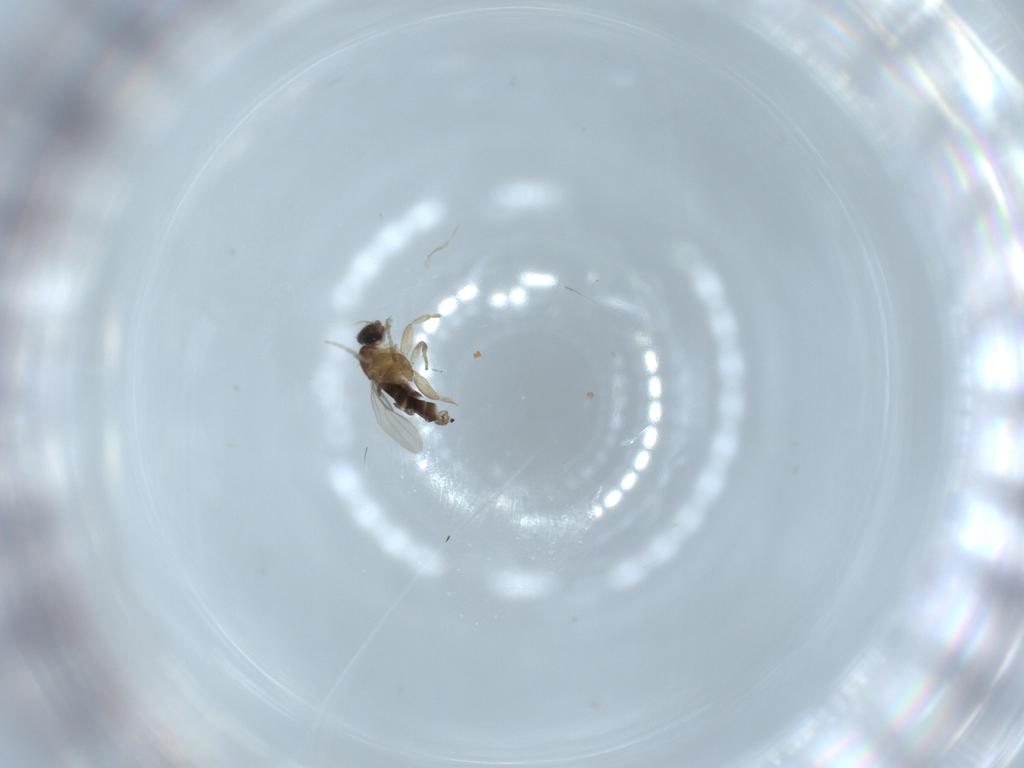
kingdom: Animalia
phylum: Arthropoda
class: Insecta
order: Diptera
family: Phoridae
